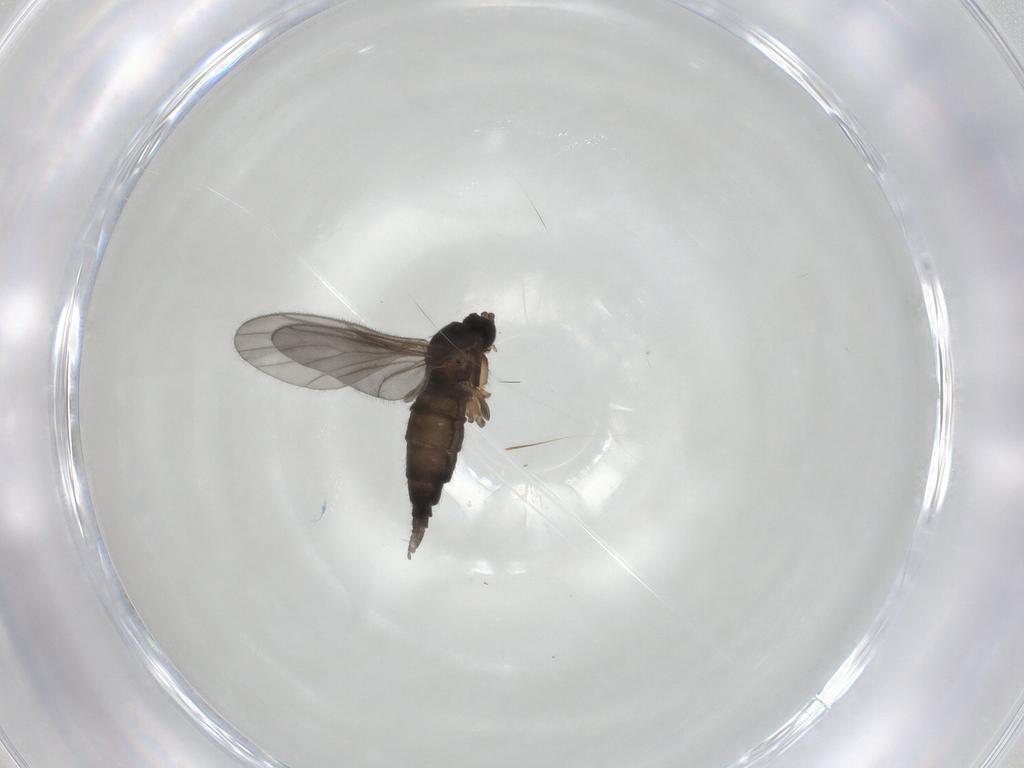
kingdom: Animalia
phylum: Arthropoda
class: Insecta
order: Diptera
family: Sciaridae
